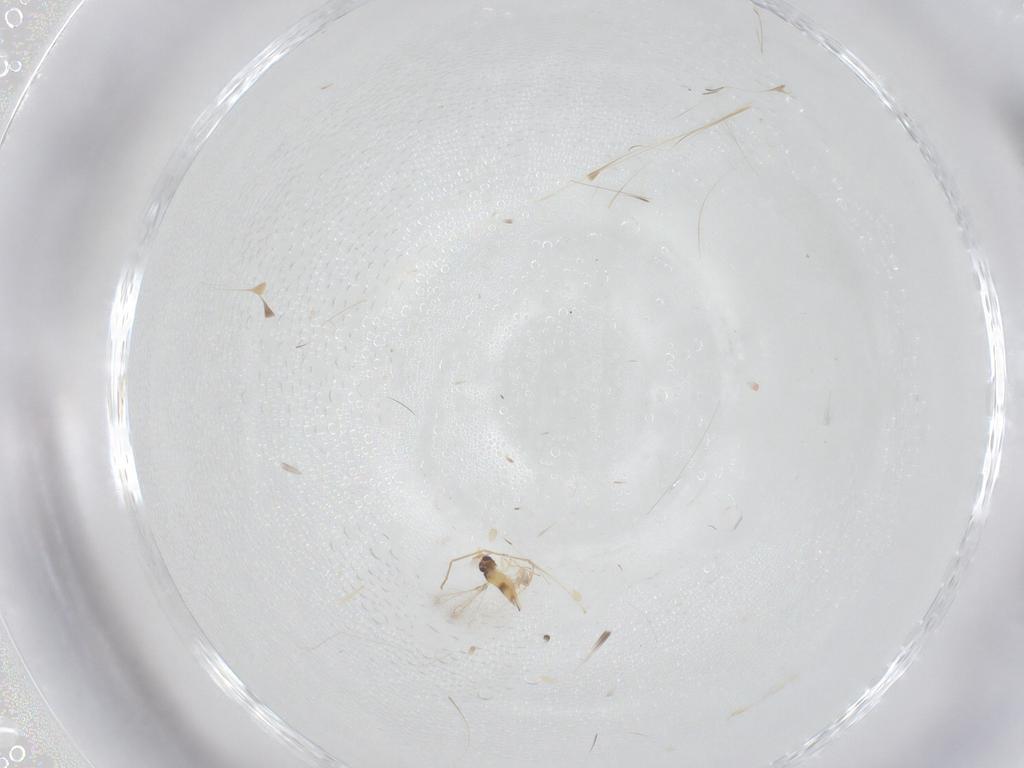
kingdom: Animalia
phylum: Arthropoda
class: Insecta
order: Hymenoptera
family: Mymaridae
